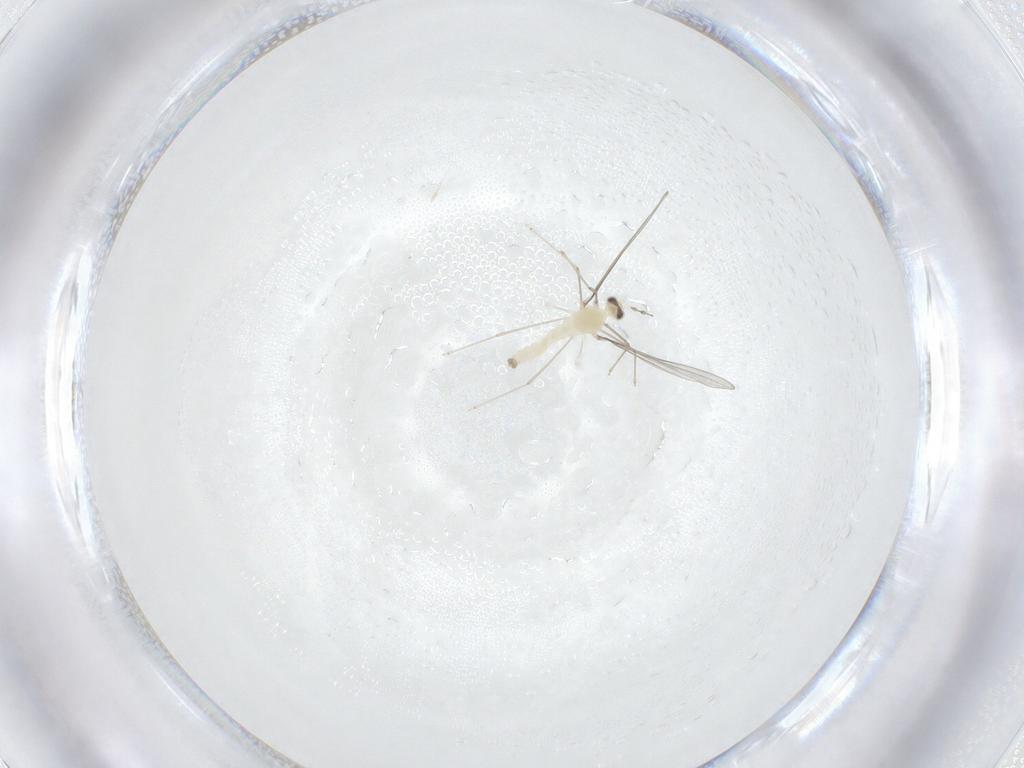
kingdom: Animalia
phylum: Arthropoda
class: Insecta
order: Diptera
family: Cecidomyiidae
